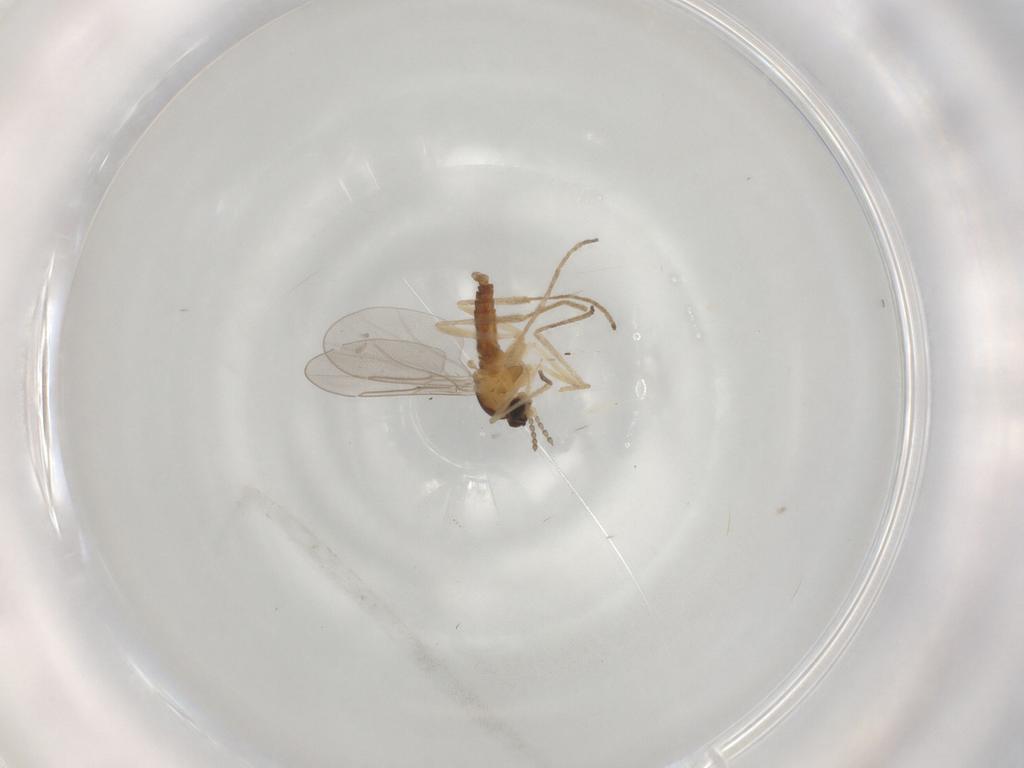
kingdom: Animalia
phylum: Arthropoda
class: Insecta
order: Diptera
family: Cecidomyiidae
